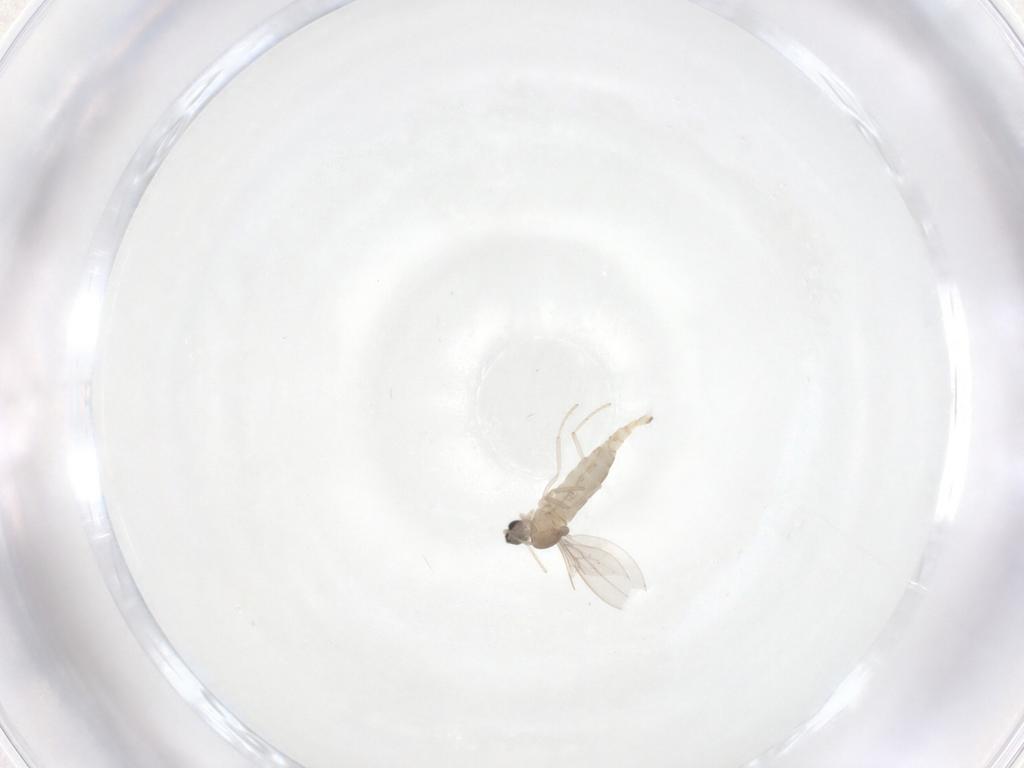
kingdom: Animalia
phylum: Arthropoda
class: Insecta
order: Diptera
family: Cecidomyiidae
